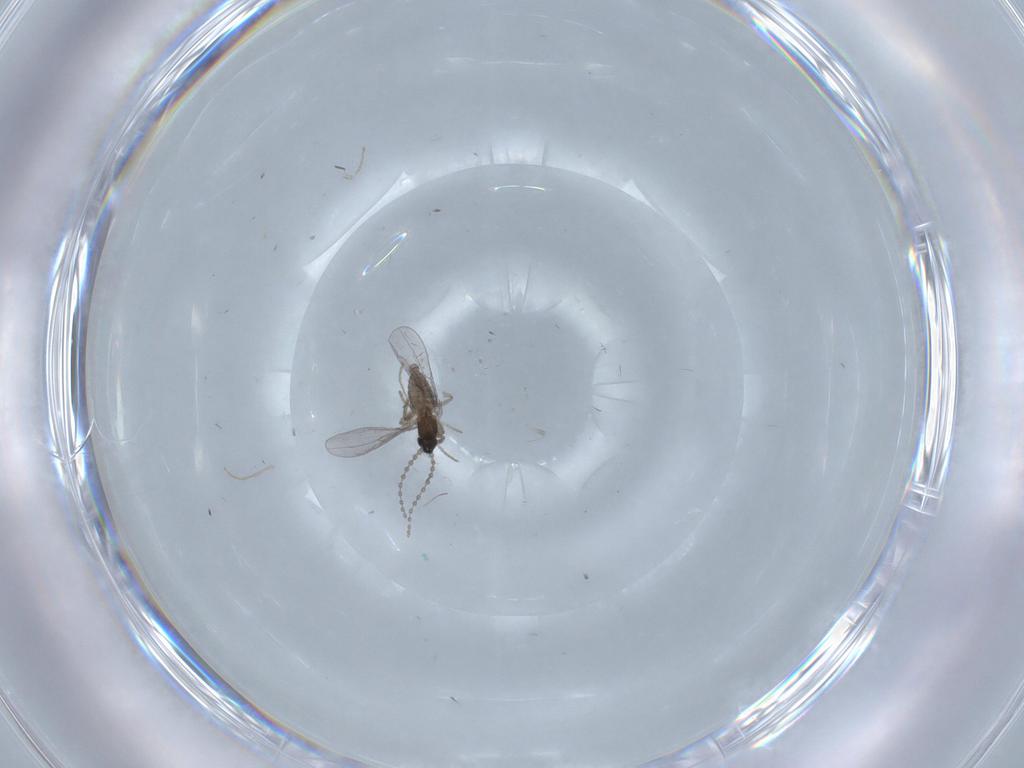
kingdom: Animalia
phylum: Arthropoda
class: Insecta
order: Diptera
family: Cecidomyiidae
